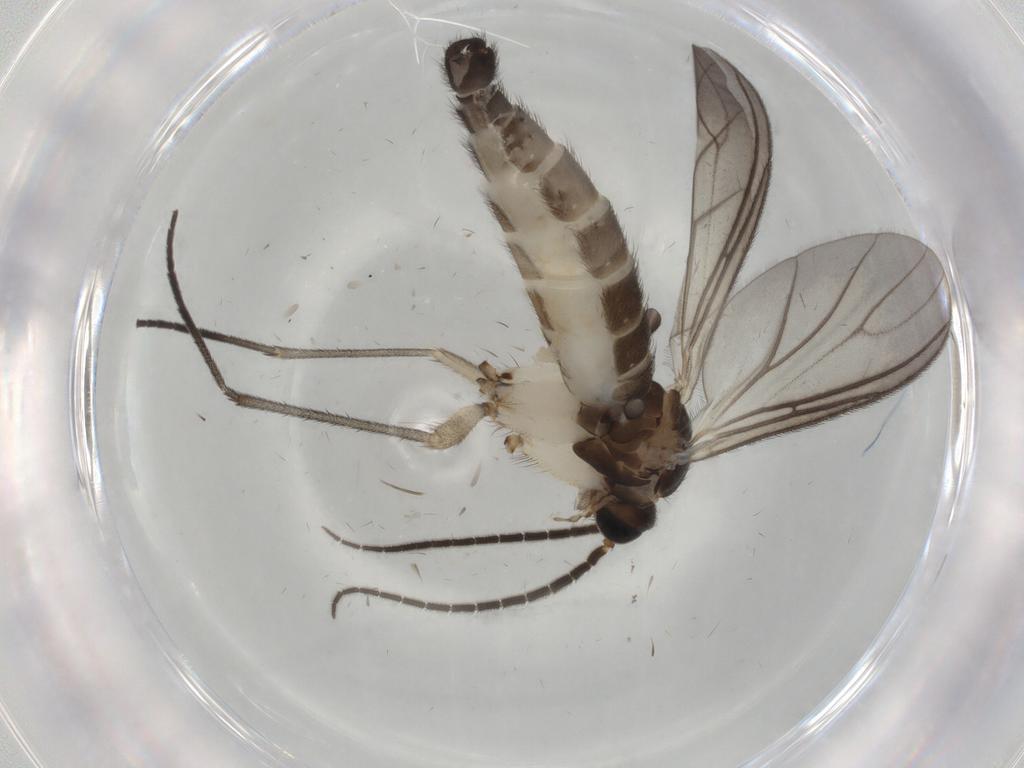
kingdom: Animalia
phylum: Arthropoda
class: Insecta
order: Diptera
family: Sciaridae
